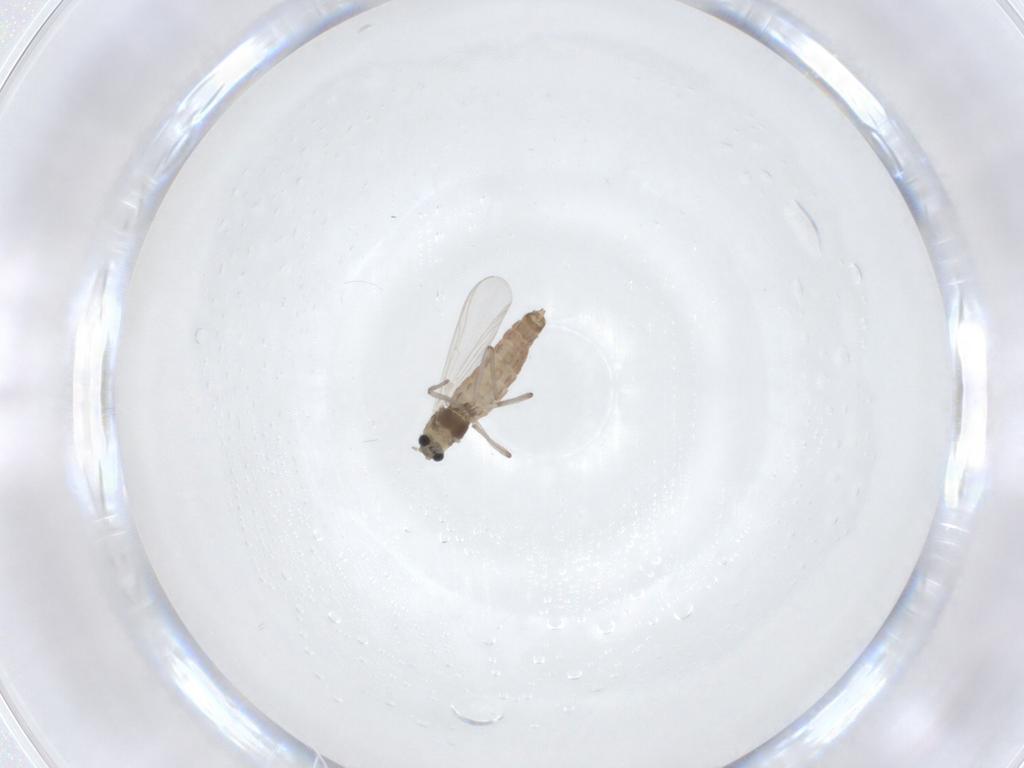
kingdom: Animalia
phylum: Arthropoda
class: Insecta
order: Diptera
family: Chironomidae
